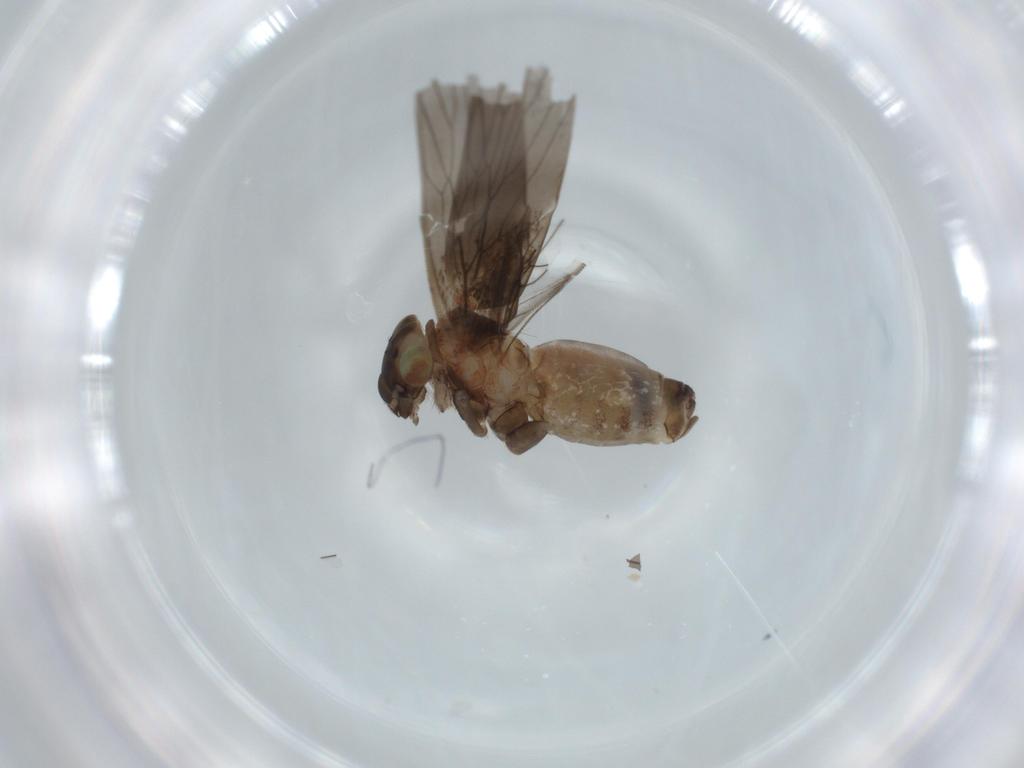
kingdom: Animalia
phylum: Arthropoda
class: Insecta
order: Psocodea
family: Lepidopsocidae
